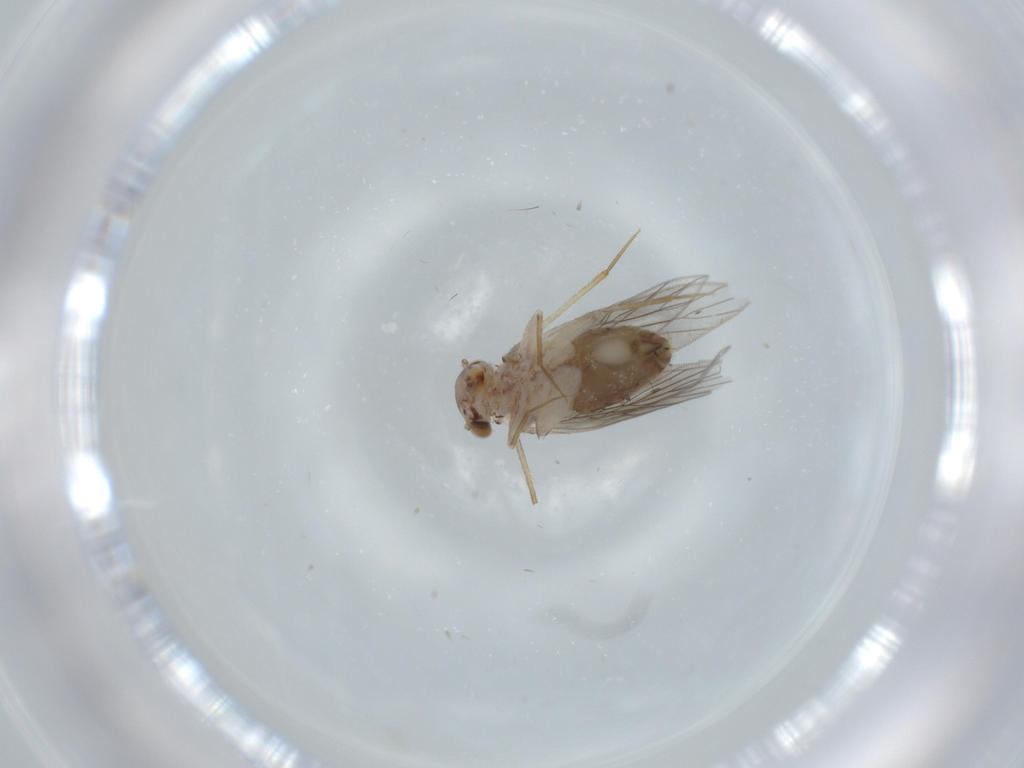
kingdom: Animalia
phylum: Arthropoda
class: Insecta
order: Psocodea
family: Lepidopsocidae
